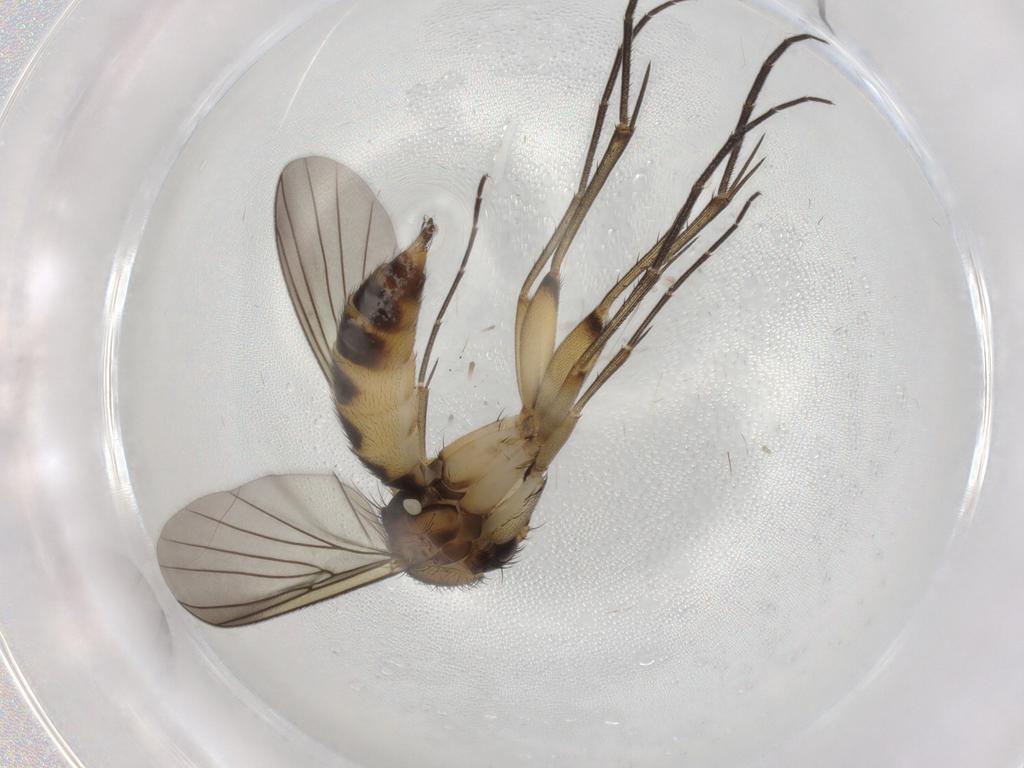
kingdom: Animalia
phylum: Arthropoda
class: Insecta
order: Diptera
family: Mycetophilidae
